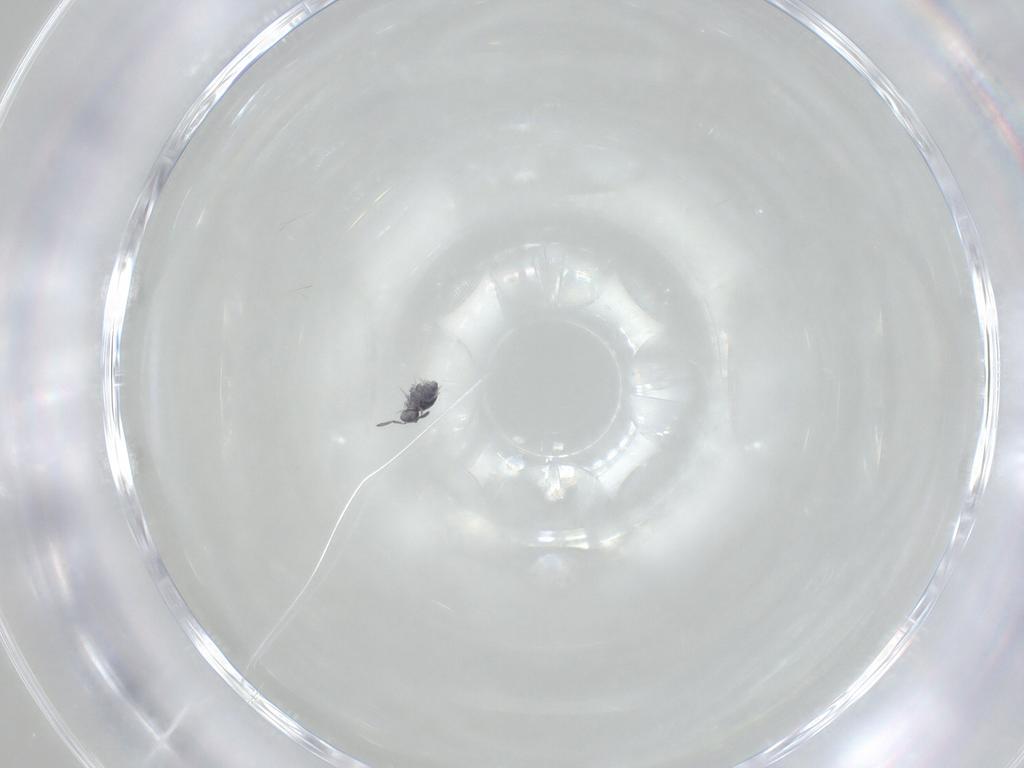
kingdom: Animalia
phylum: Arthropoda
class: Collembola
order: Symphypleona
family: Katiannidae
